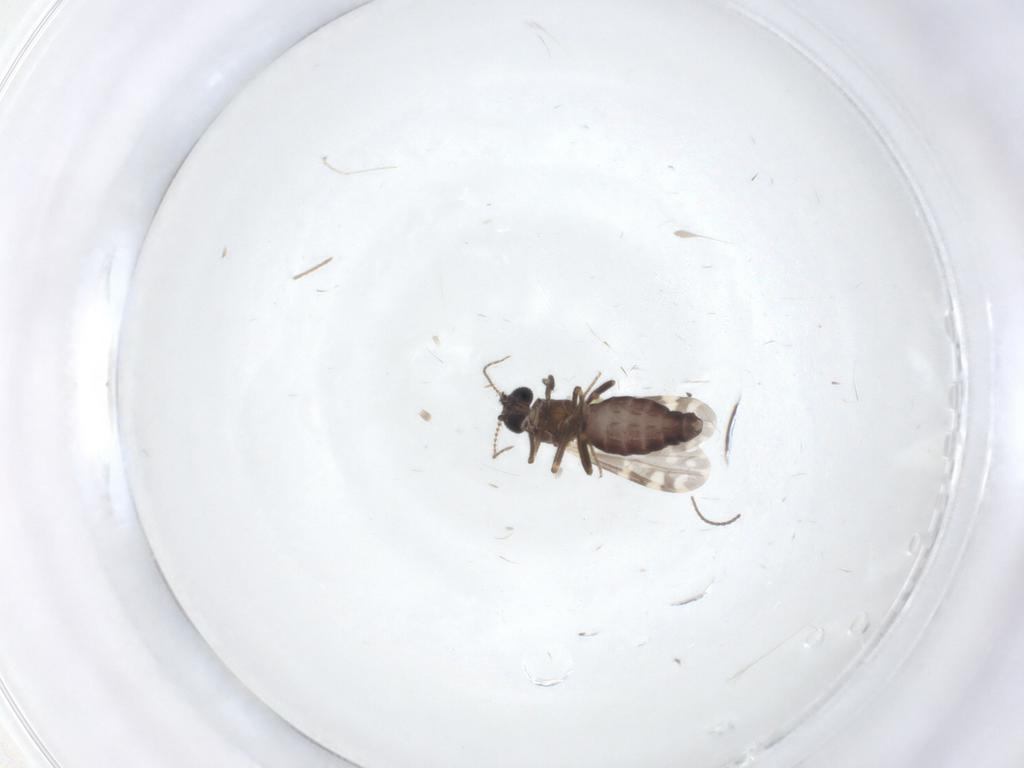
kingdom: Animalia
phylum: Arthropoda
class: Insecta
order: Diptera
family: Ceratopogonidae
